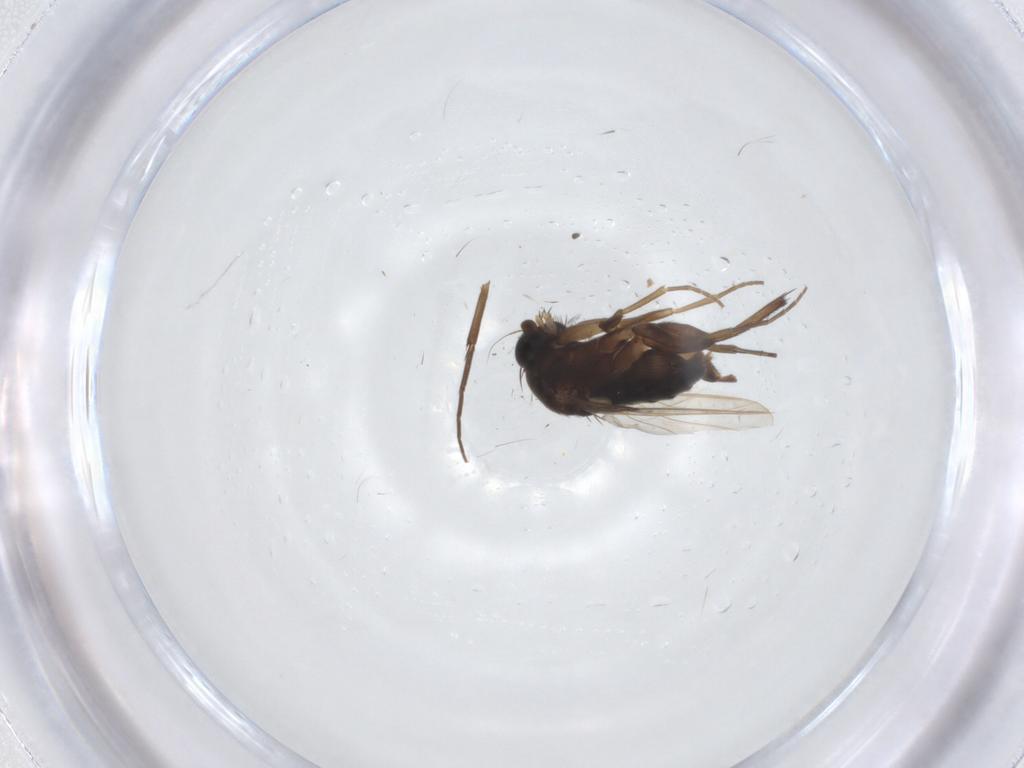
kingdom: Animalia
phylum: Arthropoda
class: Insecta
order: Diptera
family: Phoridae
